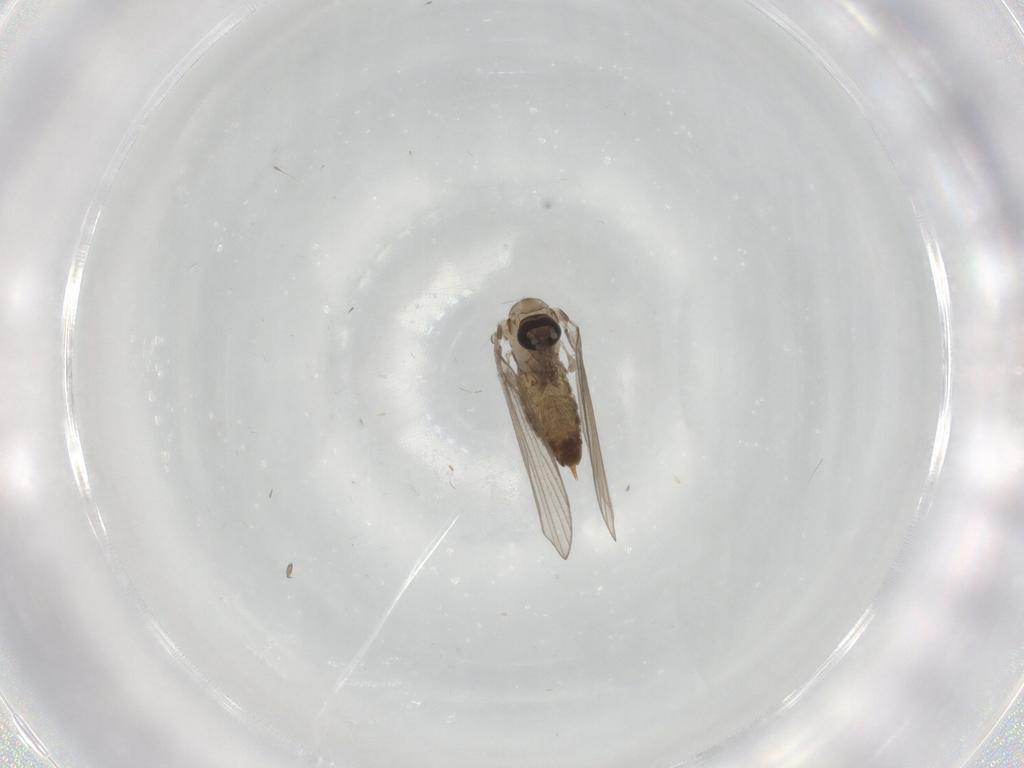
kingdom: Animalia
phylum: Arthropoda
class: Insecta
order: Diptera
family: Psychodidae
